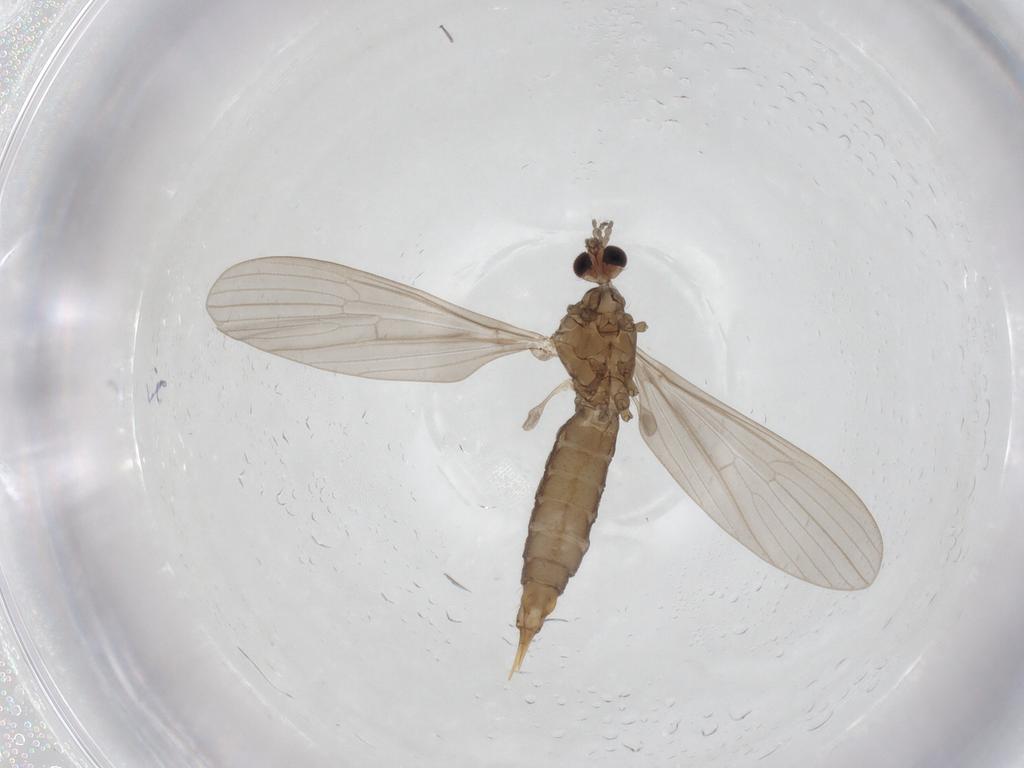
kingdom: Animalia
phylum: Arthropoda
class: Insecta
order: Diptera
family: Limoniidae
